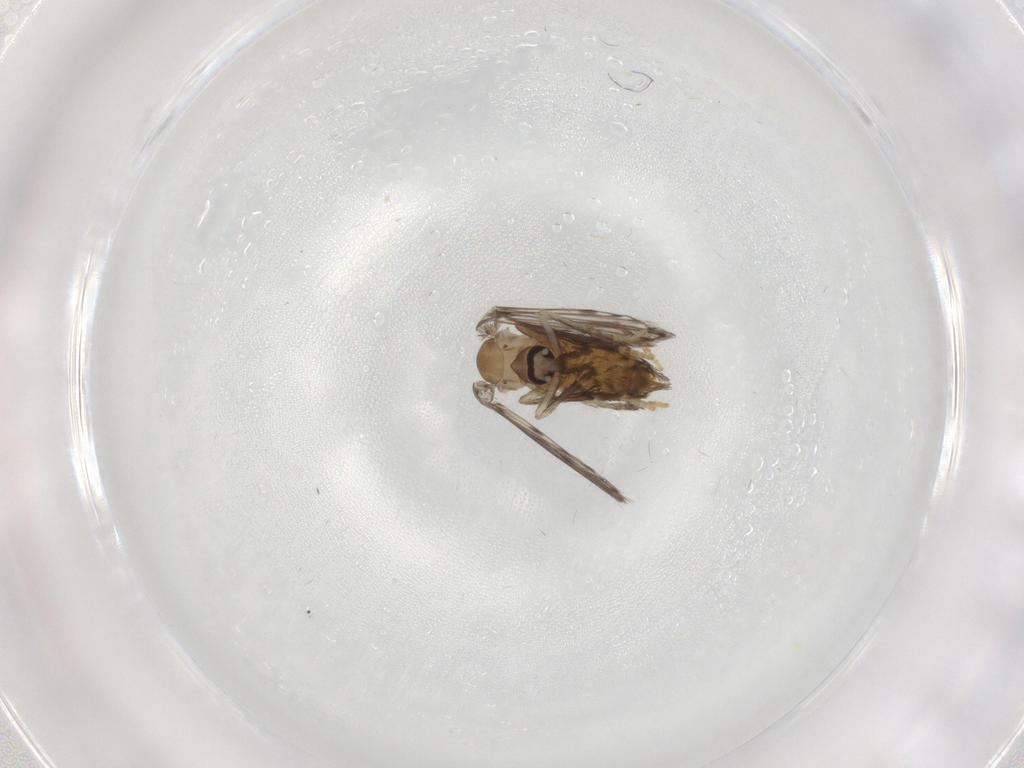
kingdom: Animalia
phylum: Arthropoda
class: Insecta
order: Diptera
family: Psychodidae
